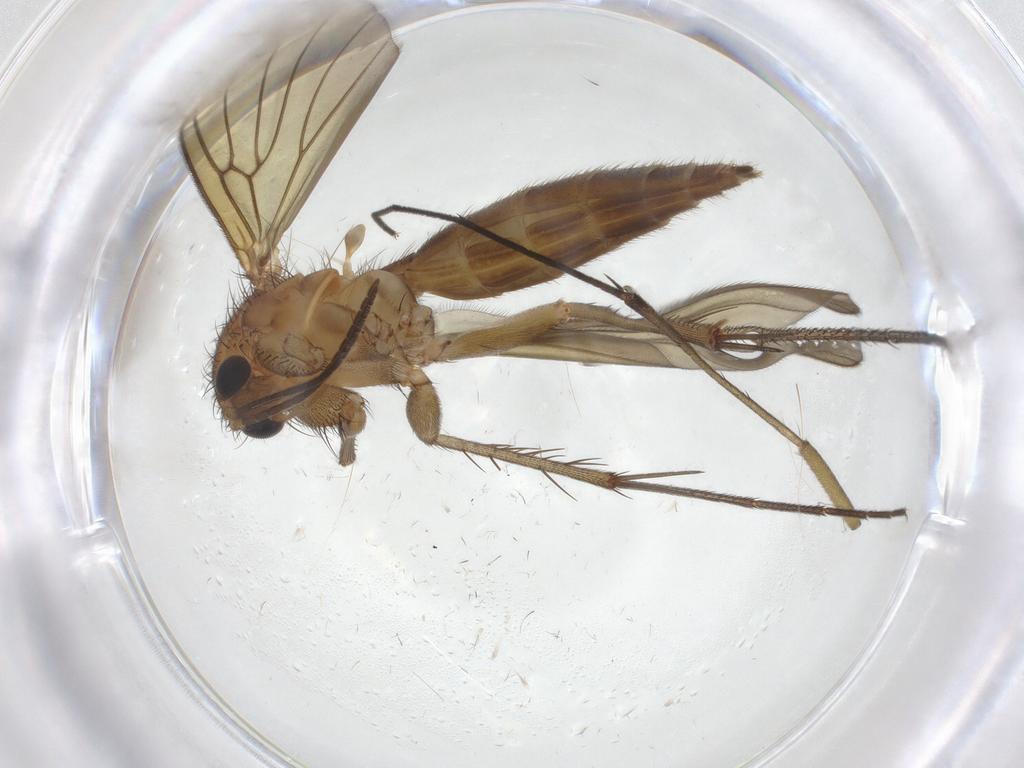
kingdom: Animalia
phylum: Arthropoda
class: Insecta
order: Diptera
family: Mycetophilidae
